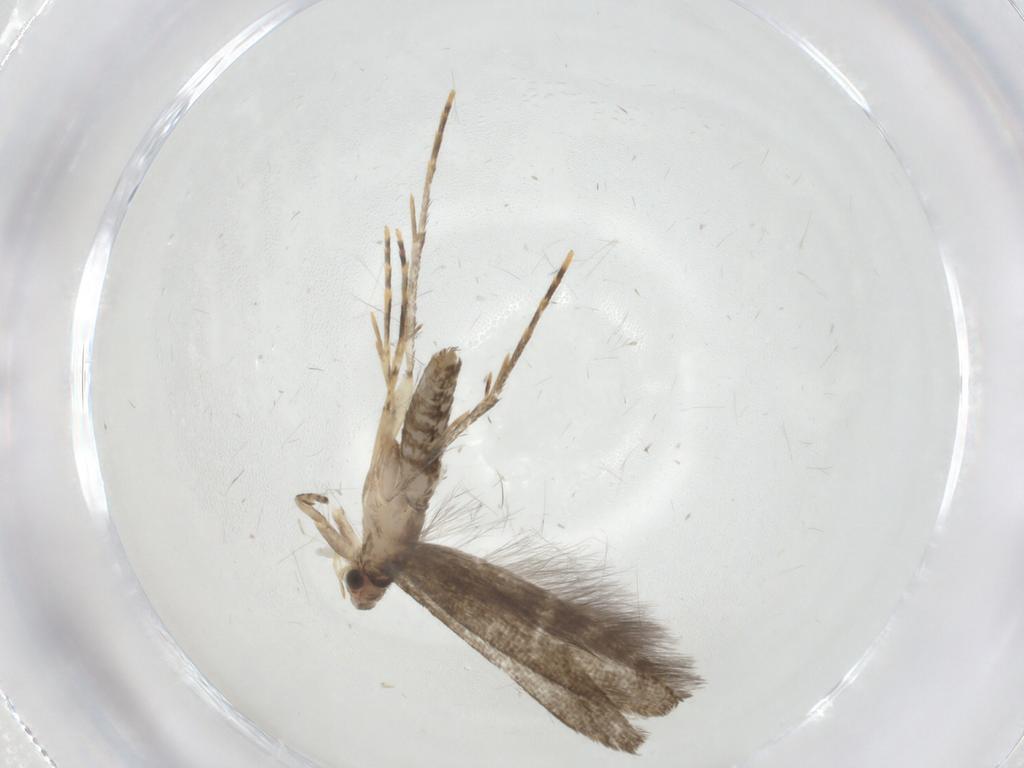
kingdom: Animalia
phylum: Arthropoda
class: Insecta
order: Lepidoptera
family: Tineidae
